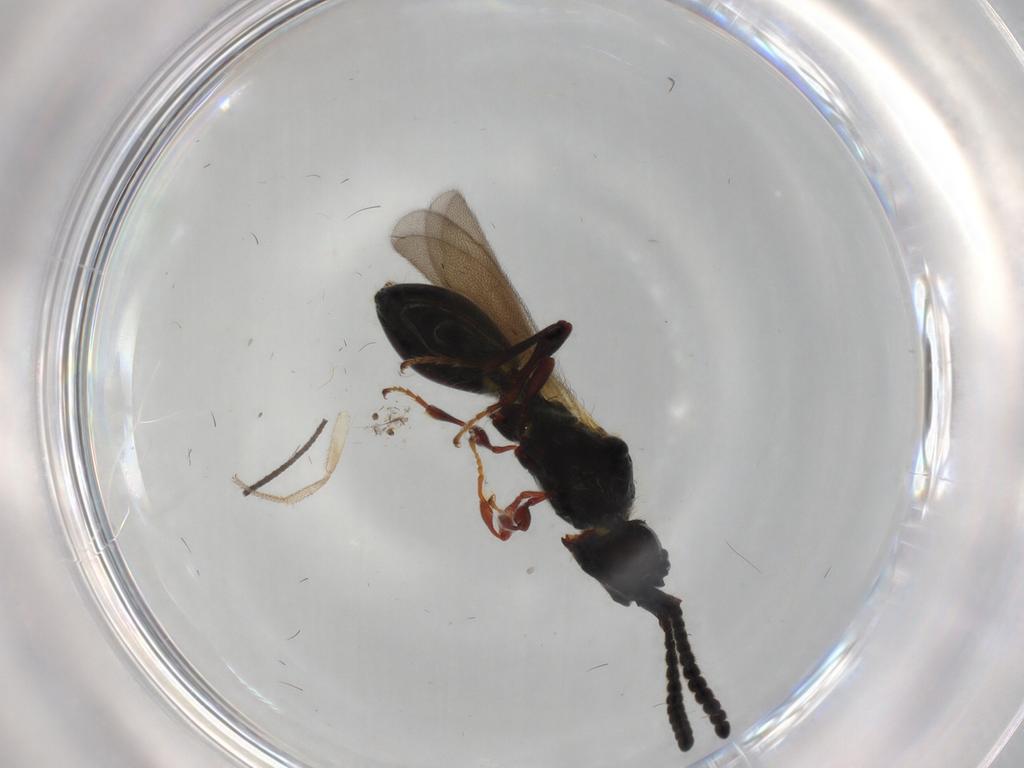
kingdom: Animalia
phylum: Arthropoda
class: Insecta
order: Hymenoptera
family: Diapriidae
